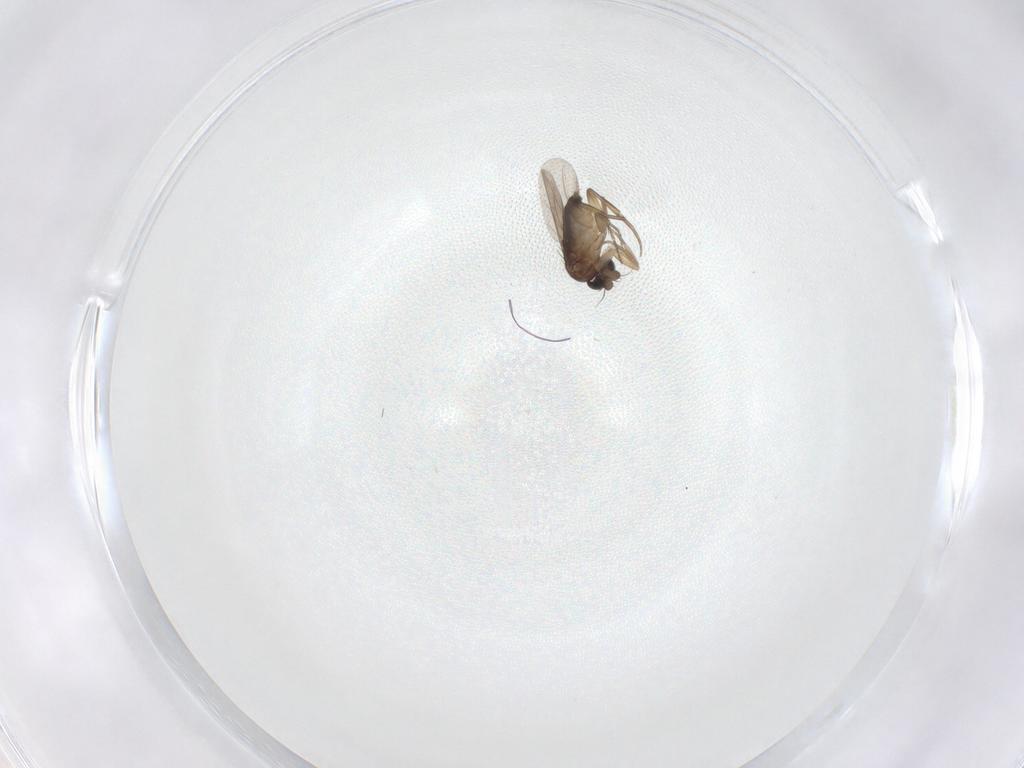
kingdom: Animalia
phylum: Arthropoda
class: Insecta
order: Diptera
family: Phoridae
